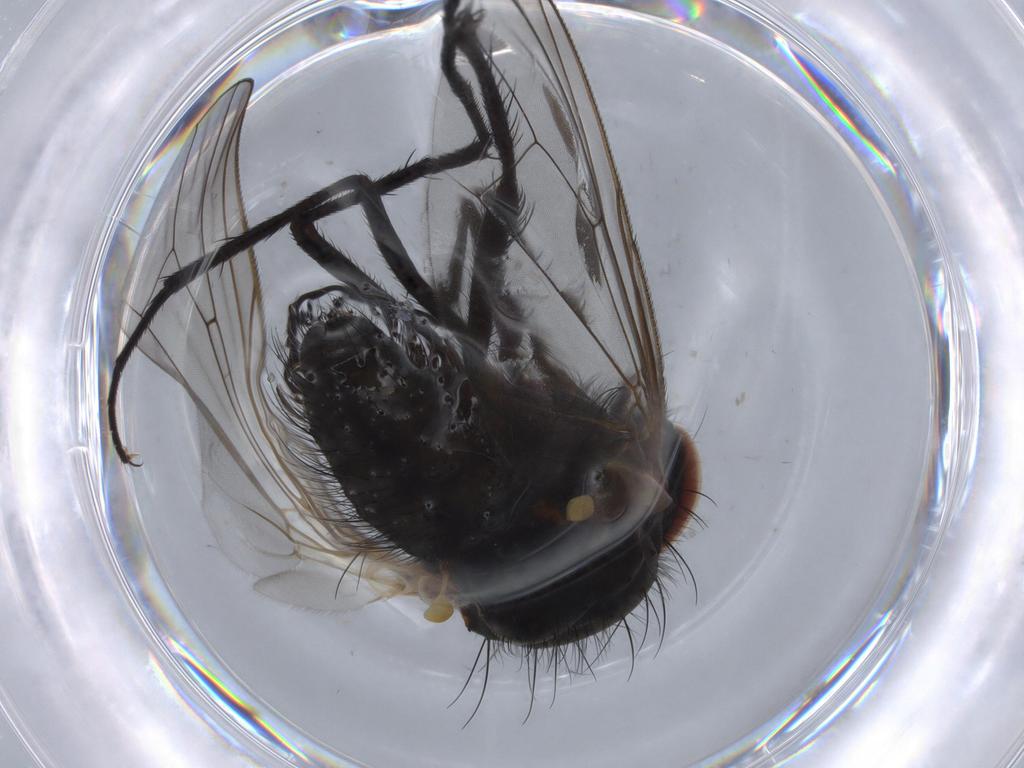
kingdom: Animalia
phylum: Arthropoda
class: Insecta
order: Diptera
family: Anthomyiidae
